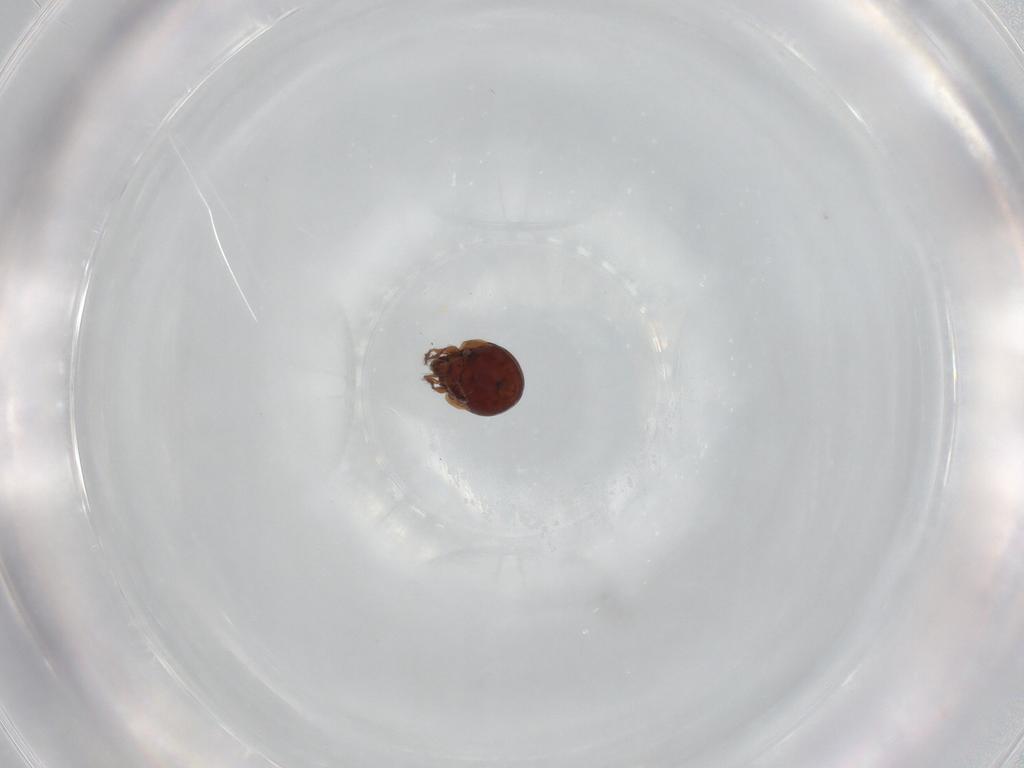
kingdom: Animalia
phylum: Arthropoda
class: Arachnida
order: Sarcoptiformes
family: Mochlozetidae
